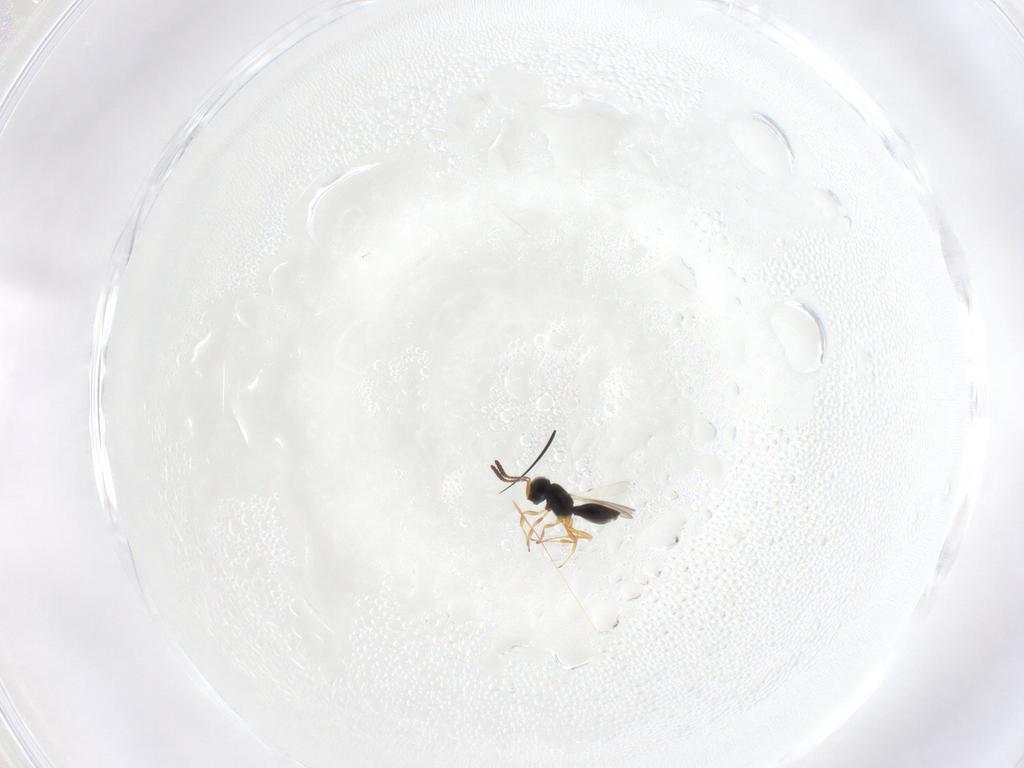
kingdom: Animalia
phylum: Arthropoda
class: Insecta
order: Hymenoptera
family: Scelionidae
